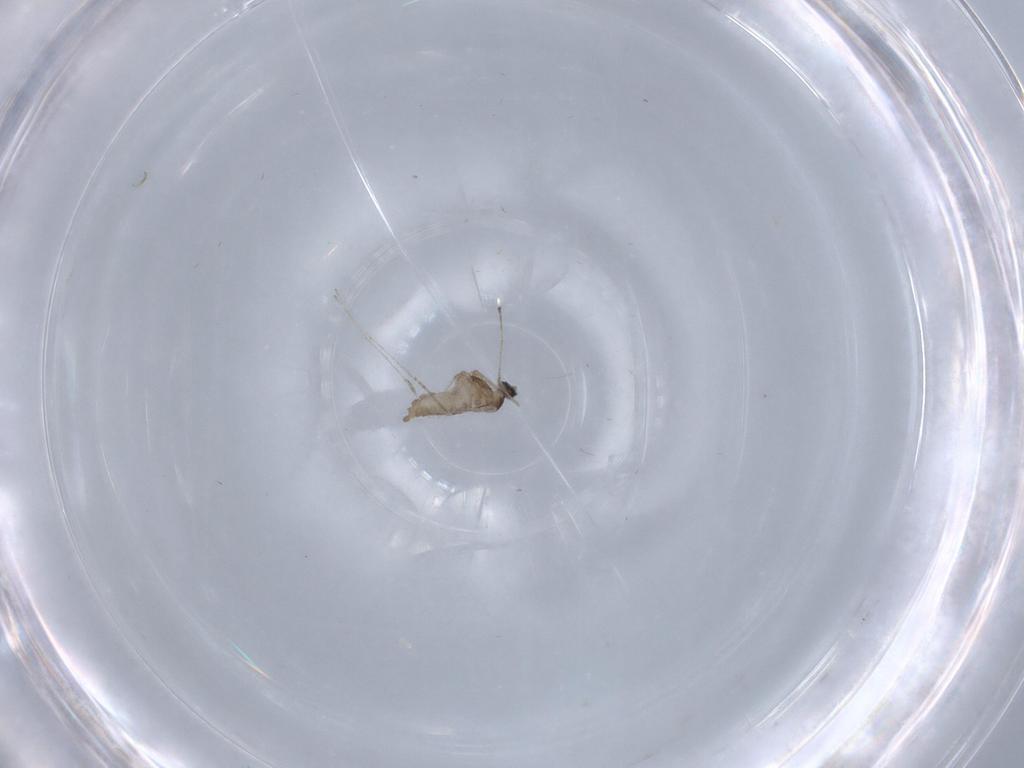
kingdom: Animalia
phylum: Arthropoda
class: Insecta
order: Diptera
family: Cecidomyiidae
